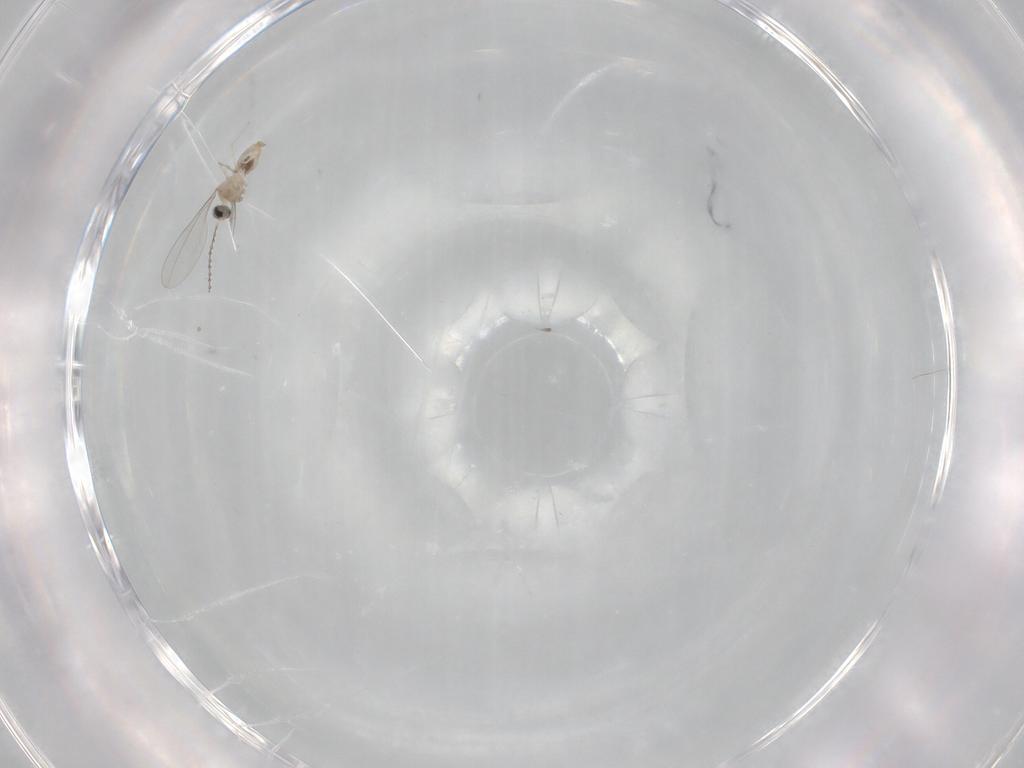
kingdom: Animalia
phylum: Arthropoda
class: Insecta
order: Diptera
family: Cecidomyiidae
